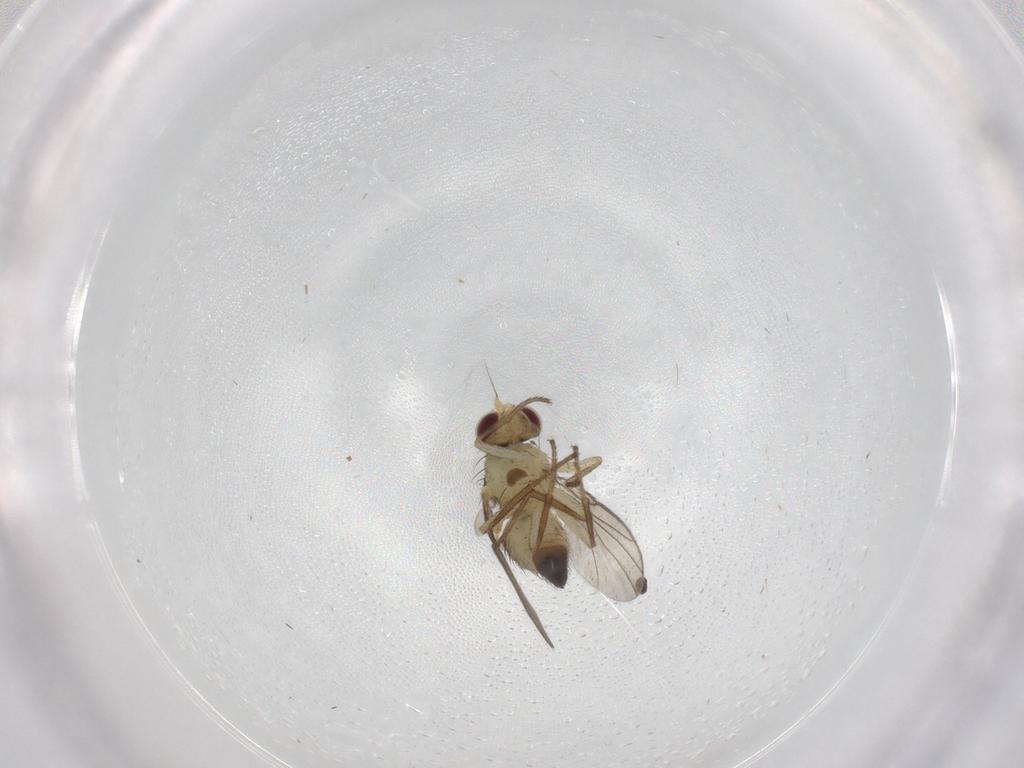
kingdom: Animalia
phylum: Arthropoda
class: Insecta
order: Diptera
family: Agromyzidae
